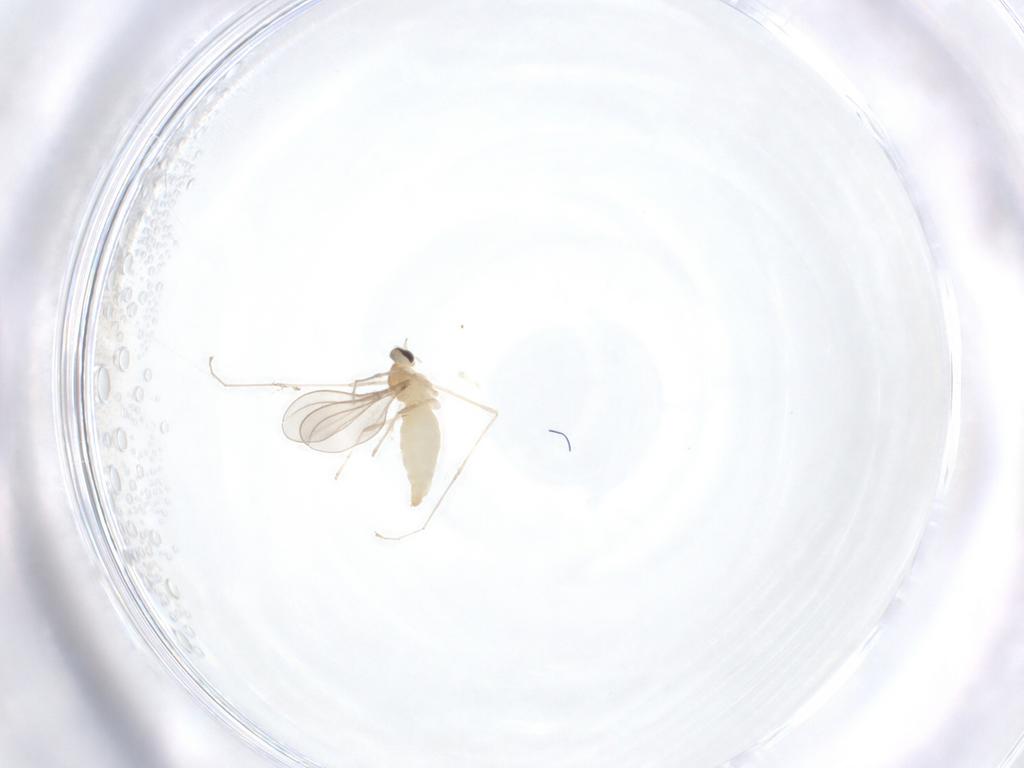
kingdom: Animalia
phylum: Arthropoda
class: Insecta
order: Diptera
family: Cecidomyiidae
